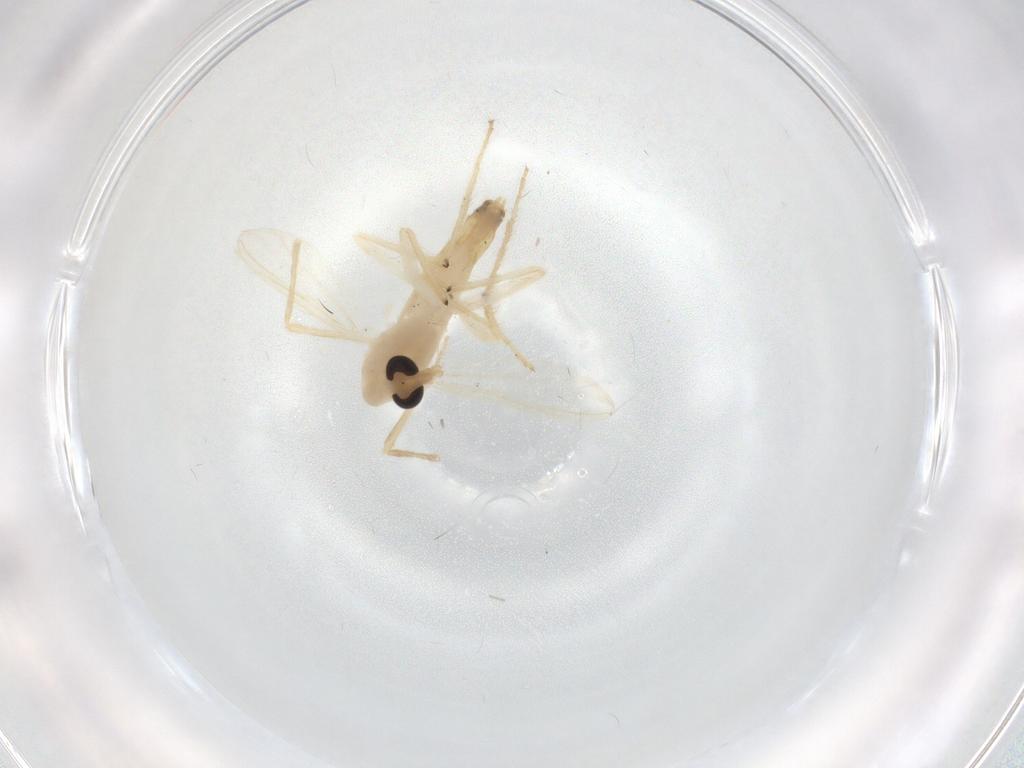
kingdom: Animalia
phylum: Arthropoda
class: Insecta
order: Diptera
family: Chironomidae
